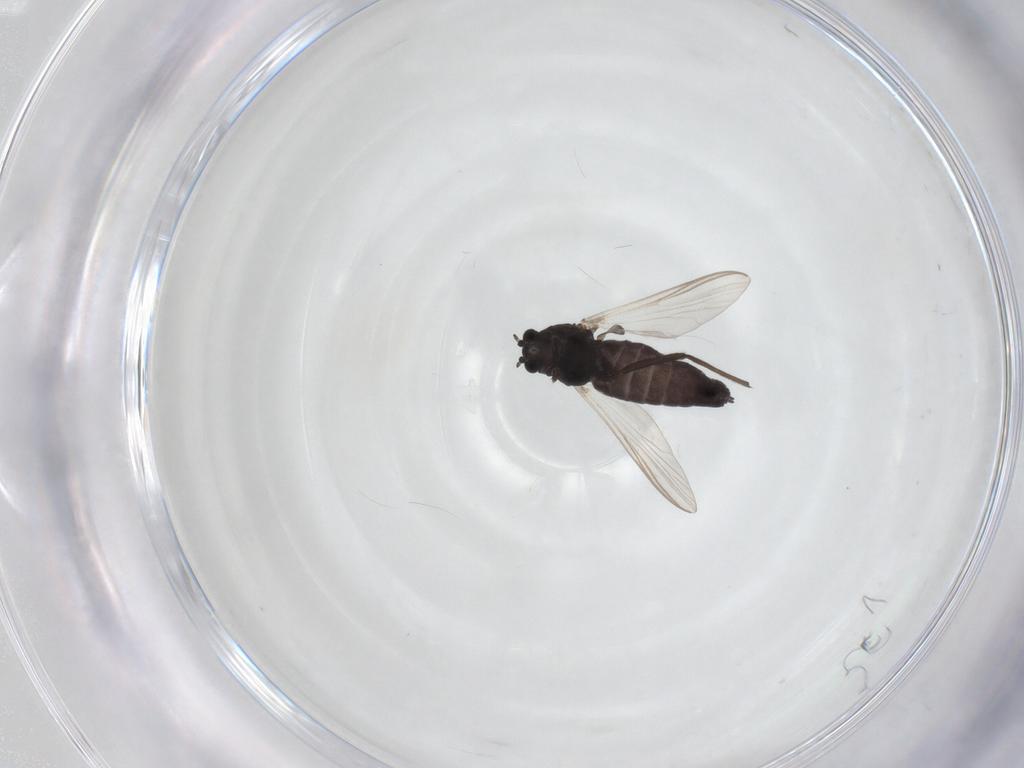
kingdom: Animalia
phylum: Arthropoda
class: Insecta
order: Diptera
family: Chironomidae
